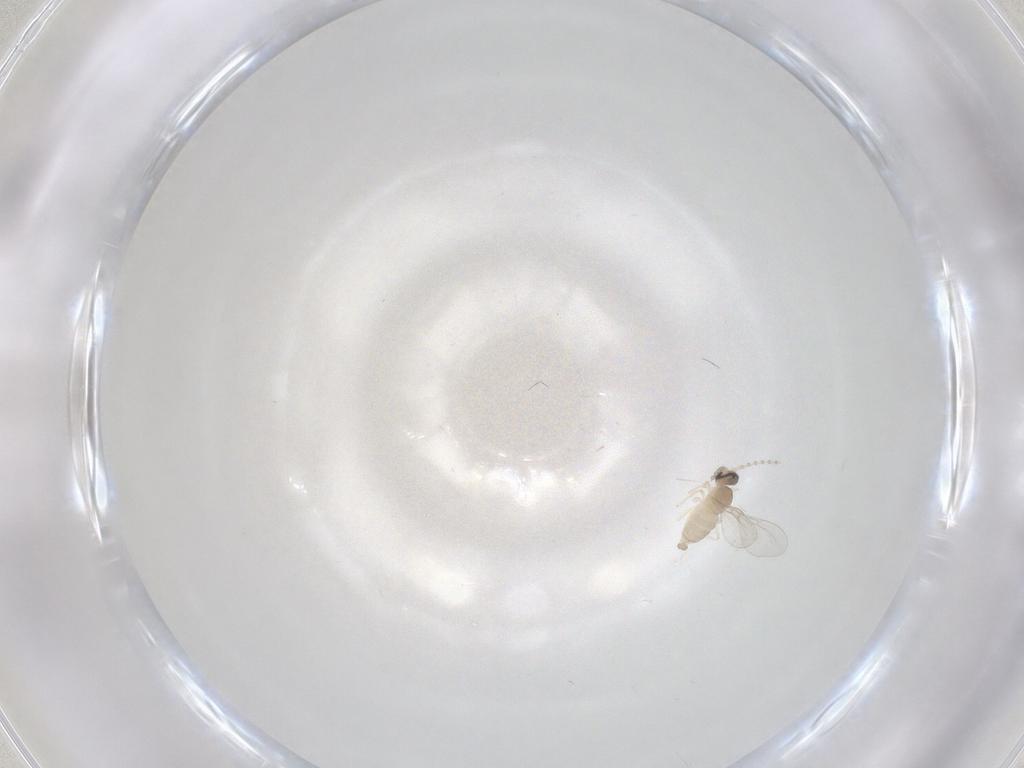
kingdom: Animalia
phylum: Arthropoda
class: Insecta
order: Diptera
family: Cecidomyiidae
